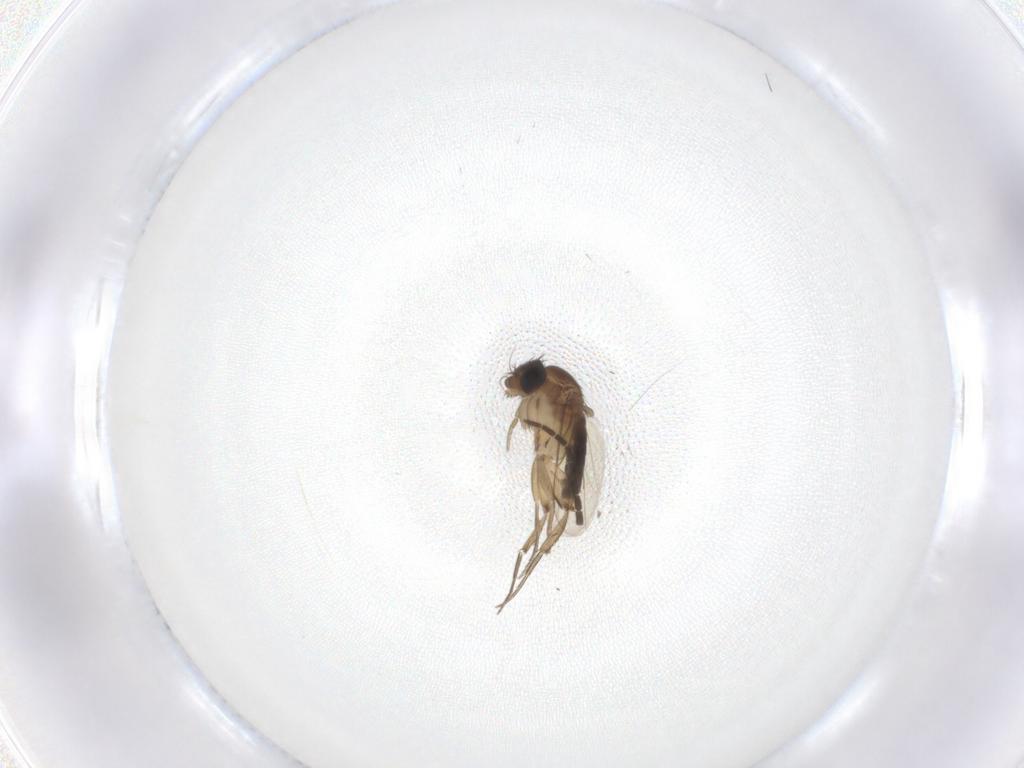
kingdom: Animalia
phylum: Arthropoda
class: Insecta
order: Diptera
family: Phoridae
